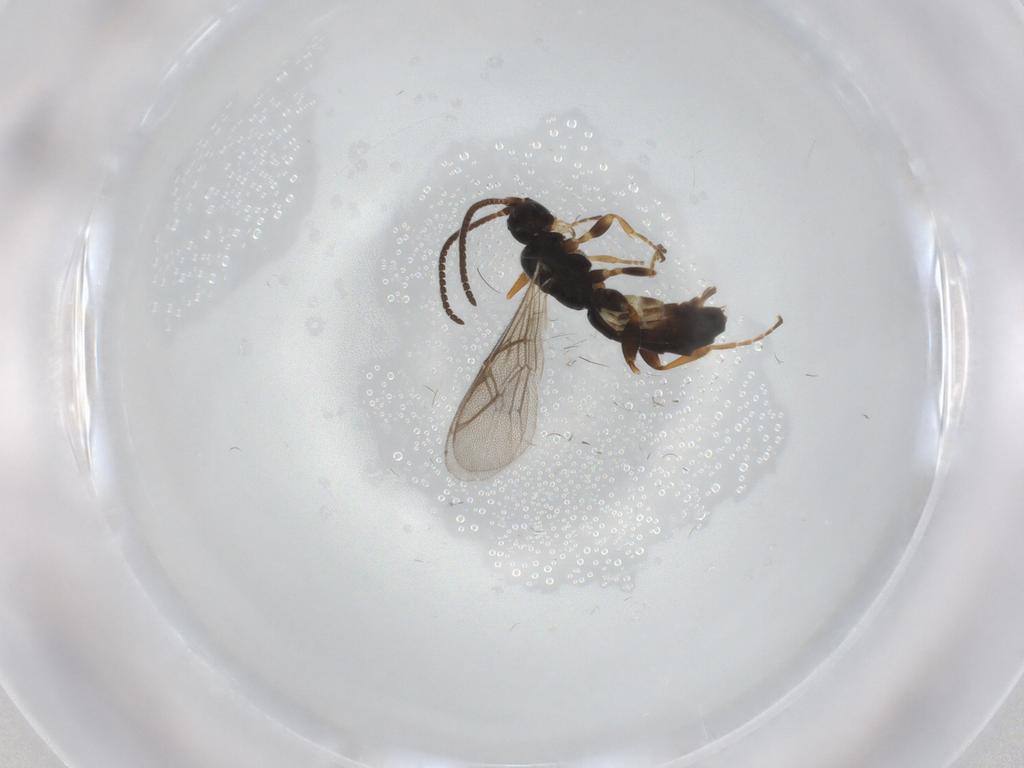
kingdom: Animalia
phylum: Arthropoda
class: Insecta
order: Hymenoptera
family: Ichneumonidae
